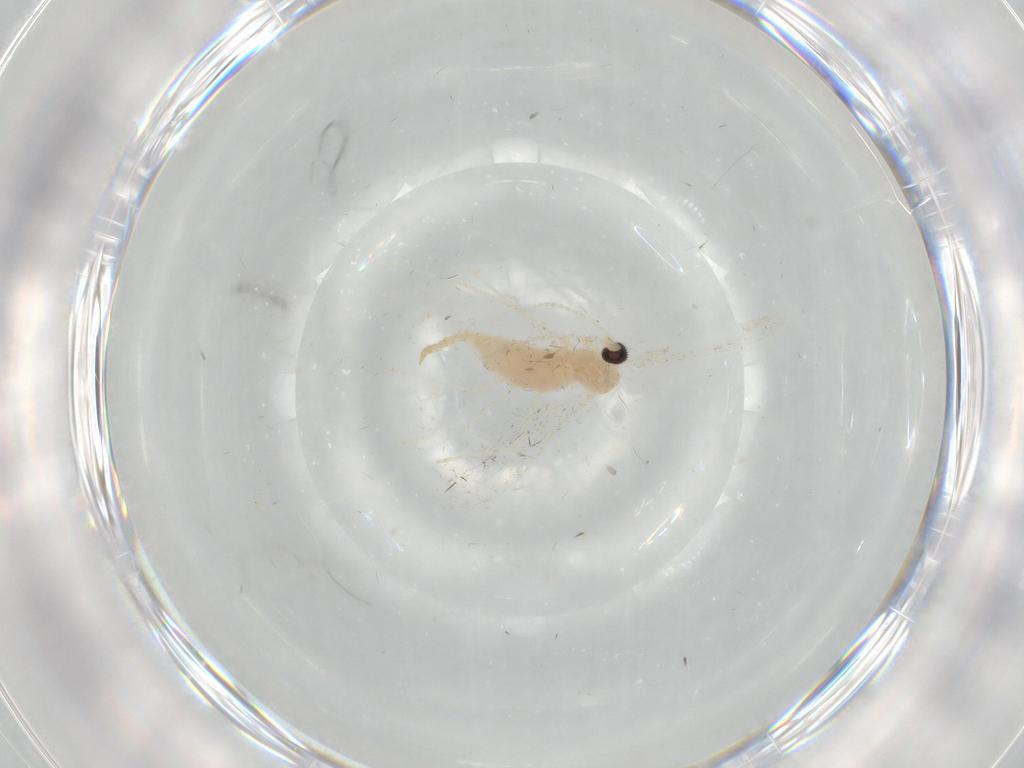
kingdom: Animalia
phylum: Arthropoda
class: Insecta
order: Diptera
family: Cecidomyiidae
